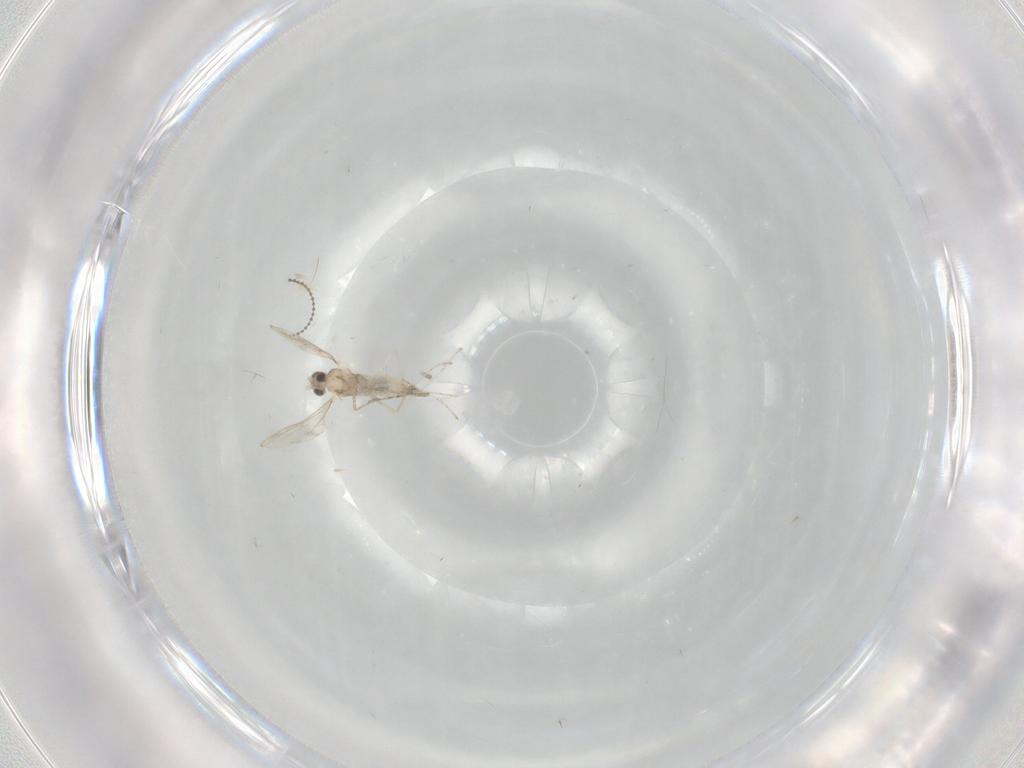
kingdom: Animalia
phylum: Arthropoda
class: Insecta
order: Diptera
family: Cecidomyiidae
